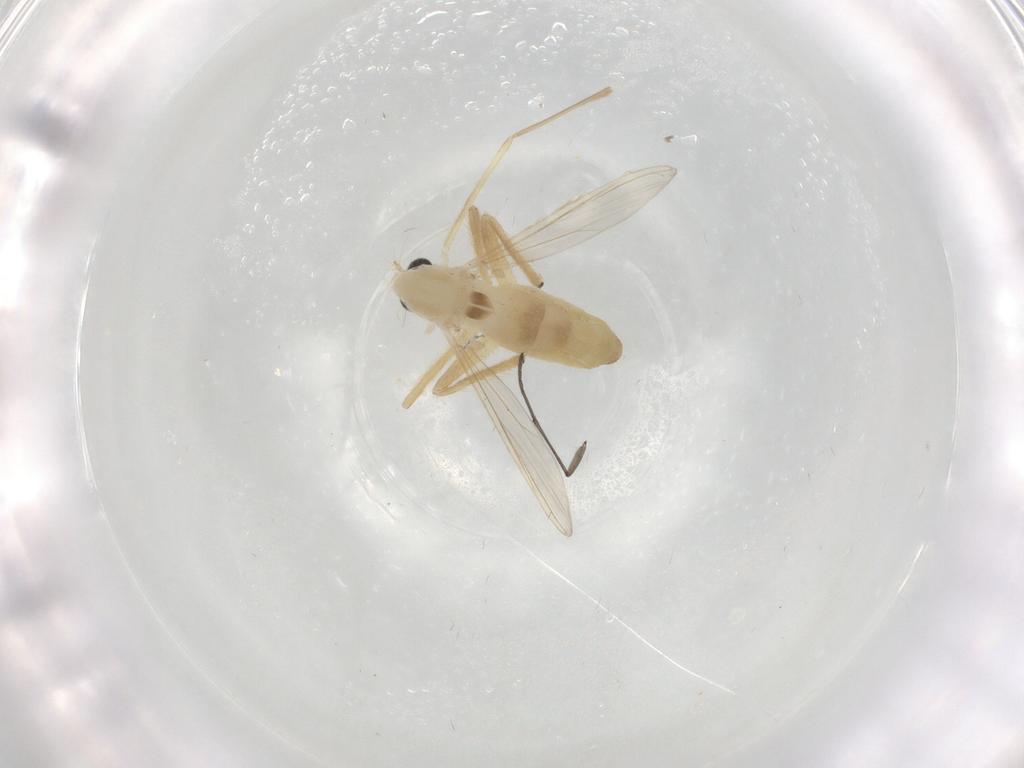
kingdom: Animalia
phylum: Arthropoda
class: Insecta
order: Diptera
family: Chironomidae
